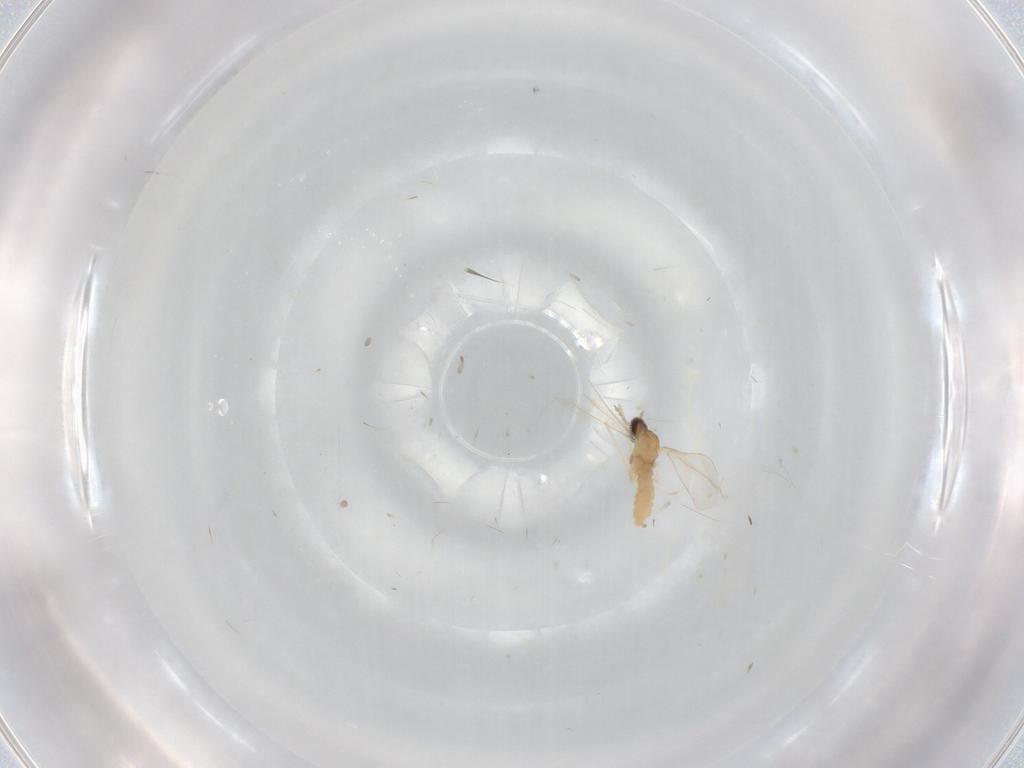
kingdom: Animalia
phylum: Arthropoda
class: Insecta
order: Diptera
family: Cecidomyiidae
